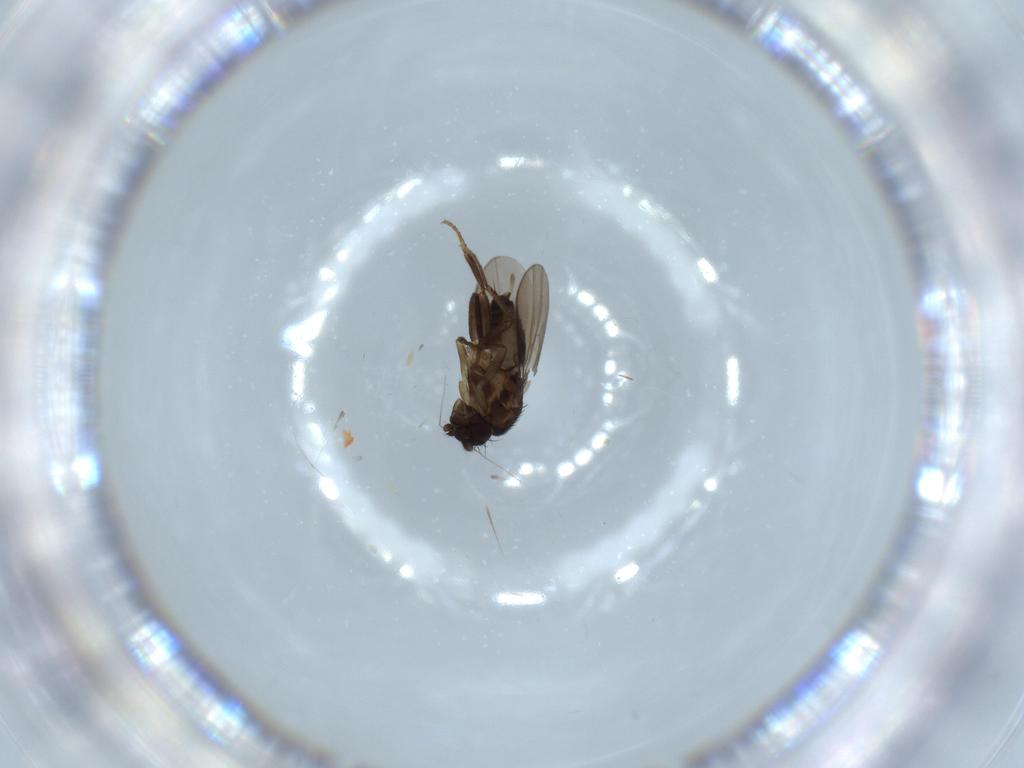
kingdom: Animalia
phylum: Arthropoda
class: Insecta
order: Diptera
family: Sphaeroceridae
